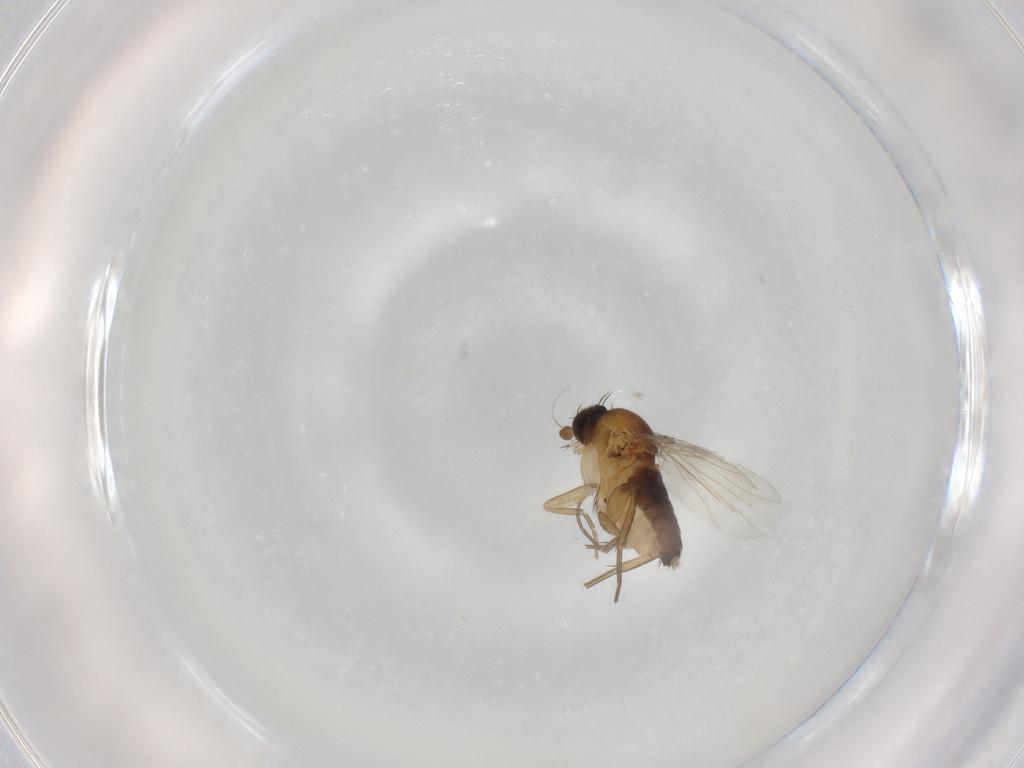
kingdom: Animalia
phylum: Arthropoda
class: Insecta
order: Diptera
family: Phoridae
